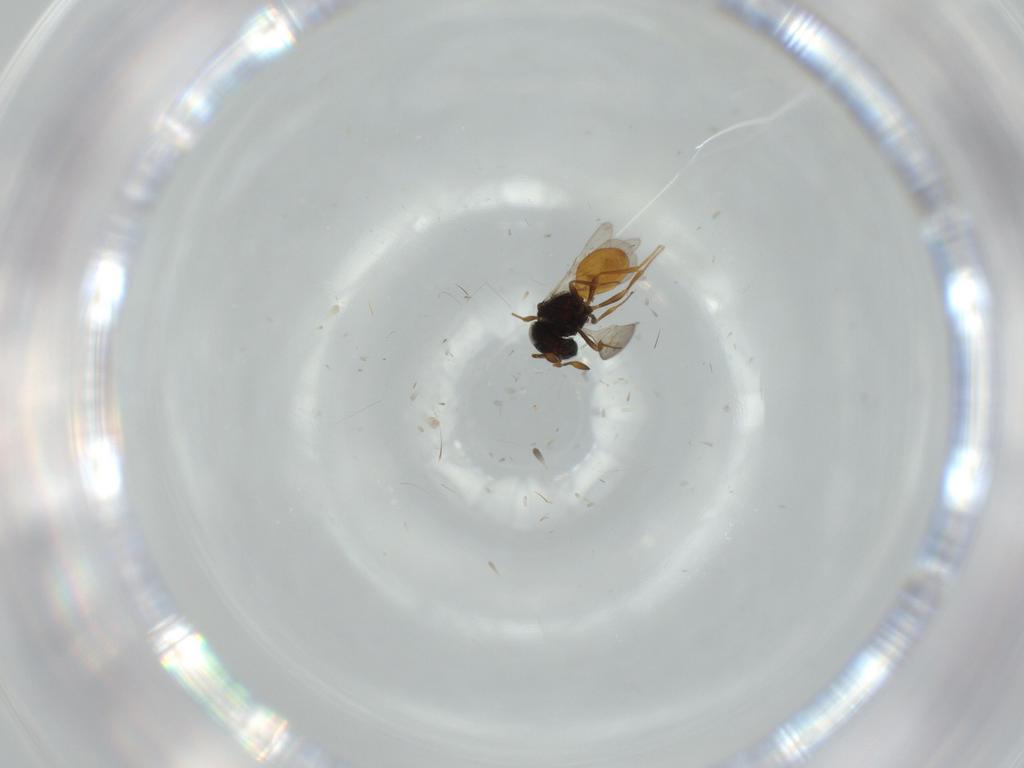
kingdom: Animalia
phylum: Arthropoda
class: Insecta
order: Hymenoptera
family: Scelionidae
